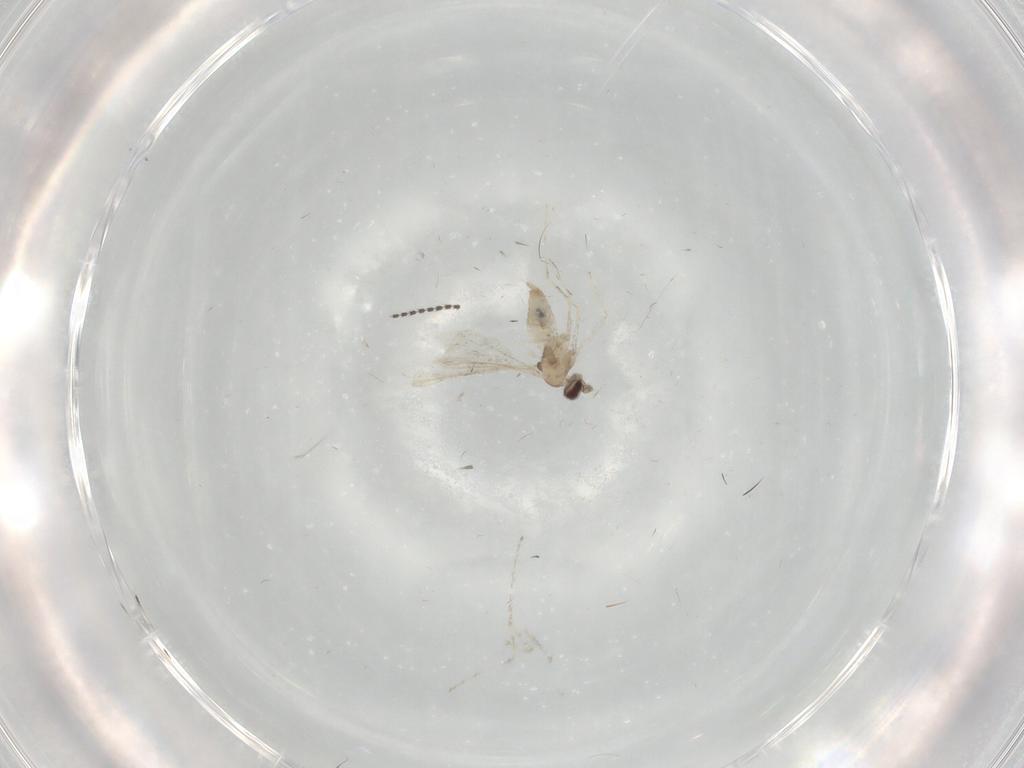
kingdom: Animalia
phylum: Arthropoda
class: Insecta
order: Diptera
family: Cecidomyiidae
